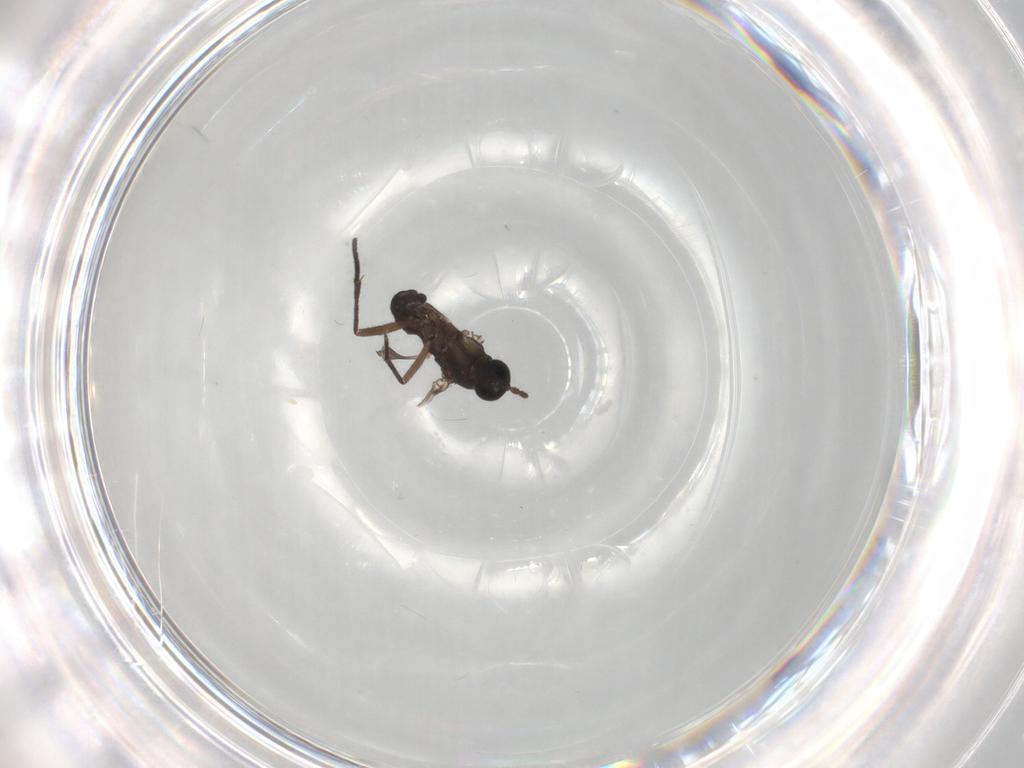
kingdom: Animalia
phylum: Arthropoda
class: Insecta
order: Diptera
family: Sciaridae
